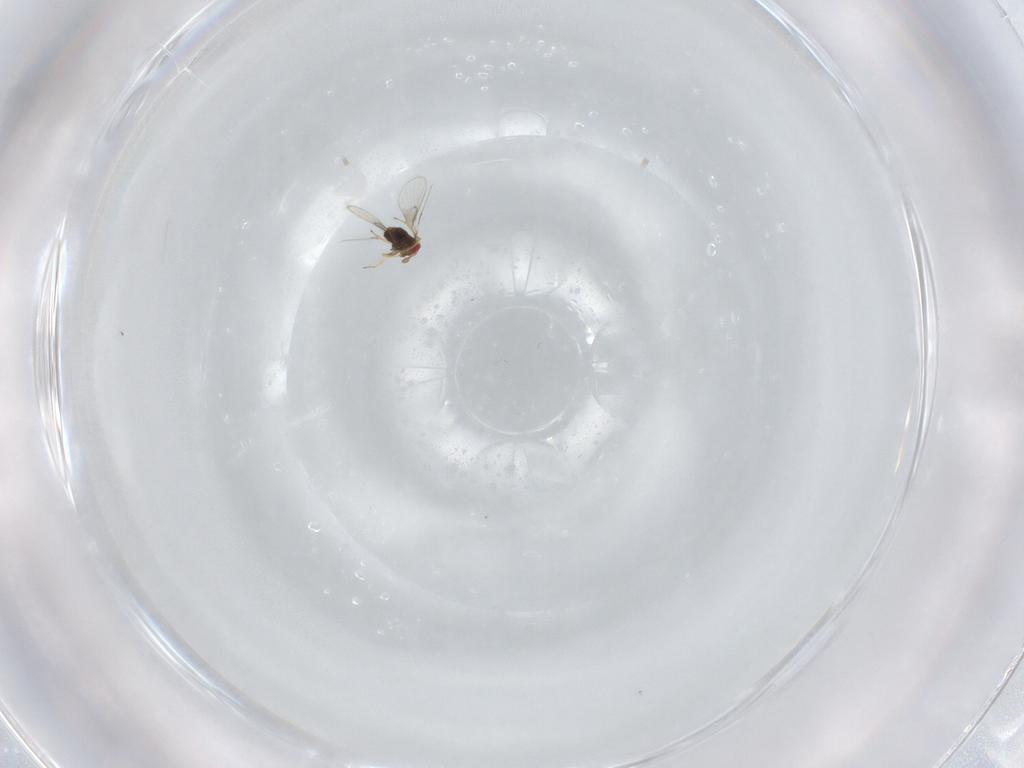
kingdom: Animalia
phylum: Arthropoda
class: Insecta
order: Hymenoptera
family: Trichogrammatidae
